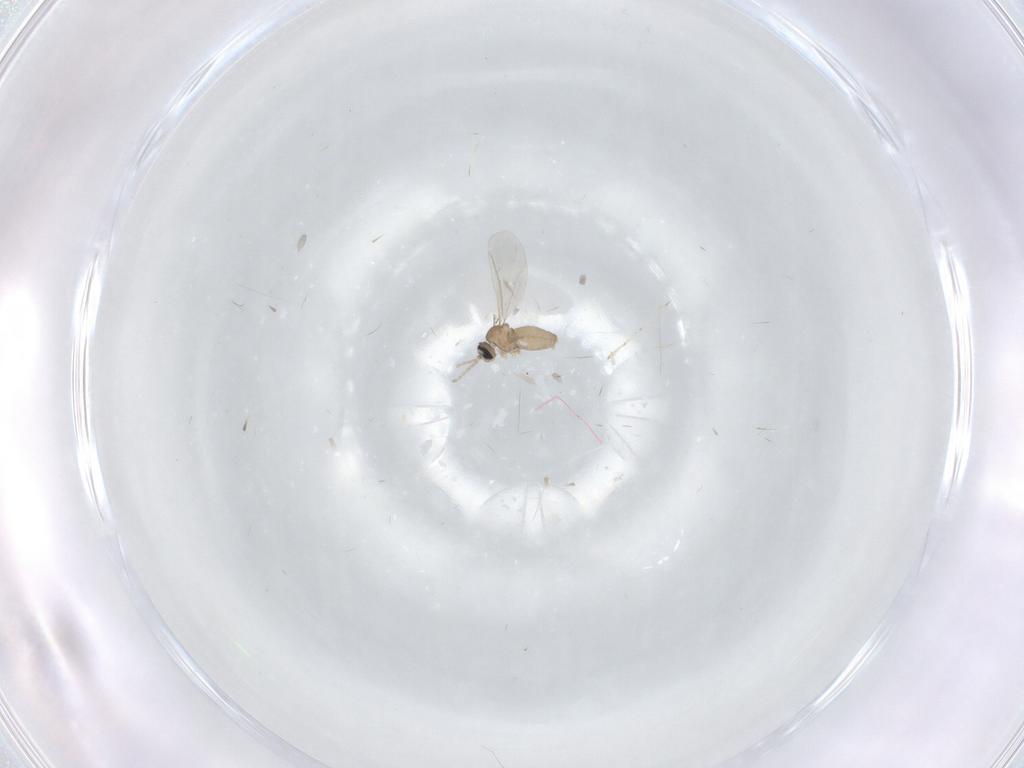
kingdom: Animalia
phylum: Arthropoda
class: Insecta
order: Diptera
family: Cecidomyiidae
